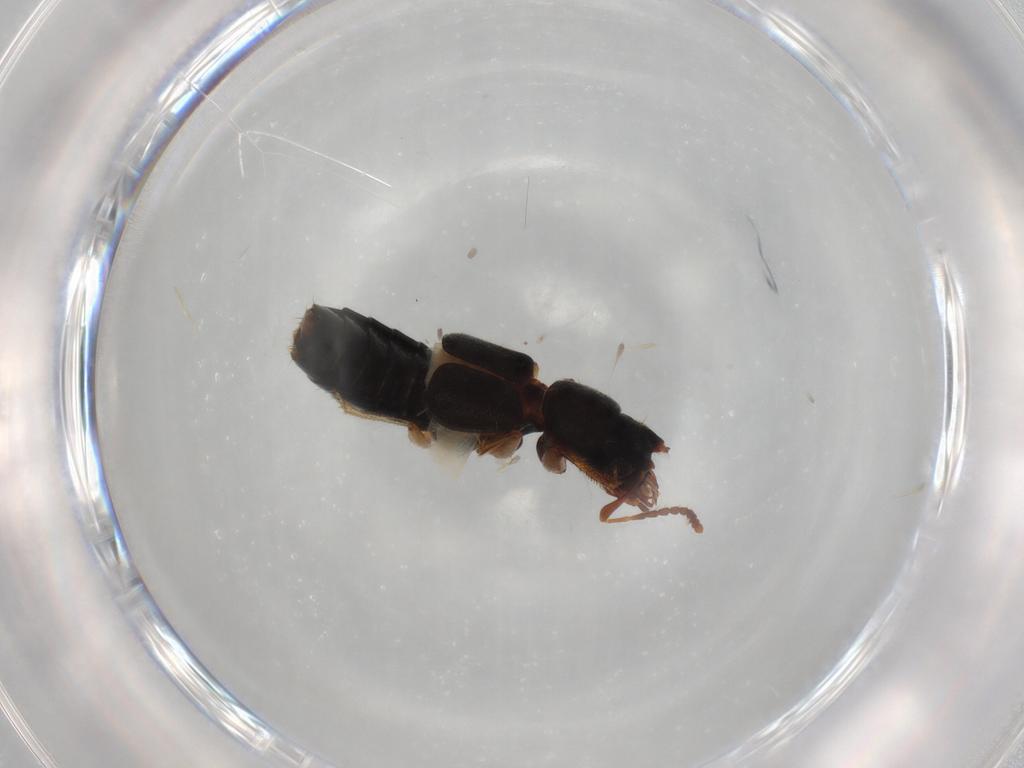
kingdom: Animalia
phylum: Arthropoda
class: Insecta
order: Coleoptera
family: Staphylinidae
